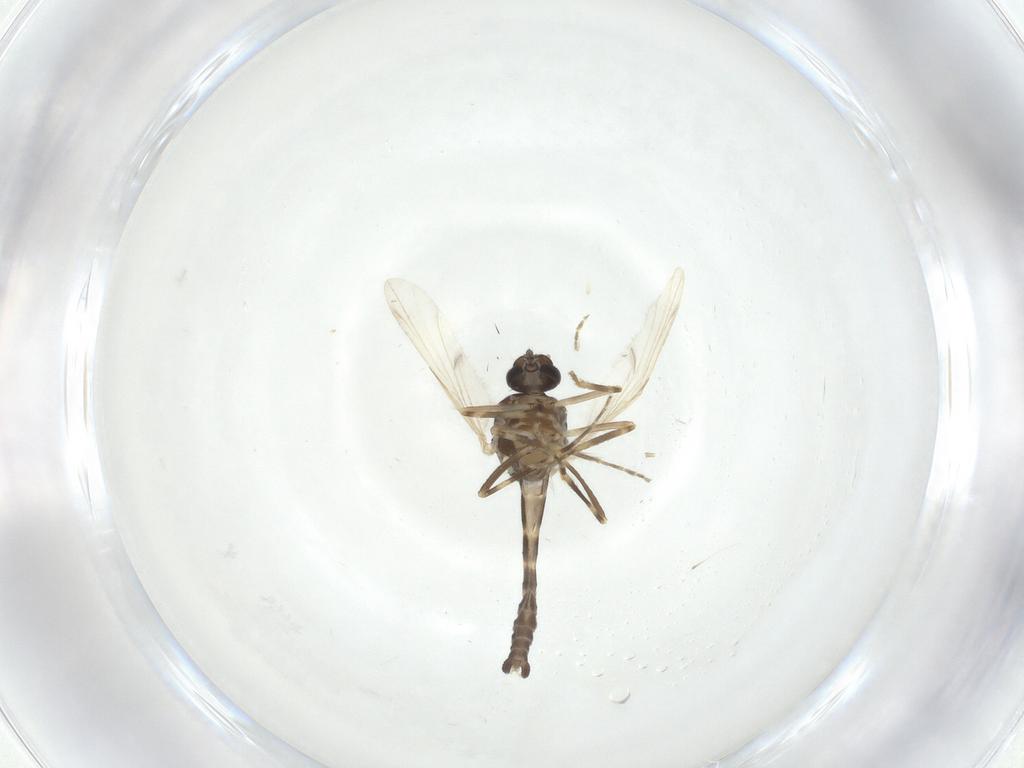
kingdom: Animalia
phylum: Arthropoda
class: Insecta
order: Diptera
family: Ceratopogonidae
